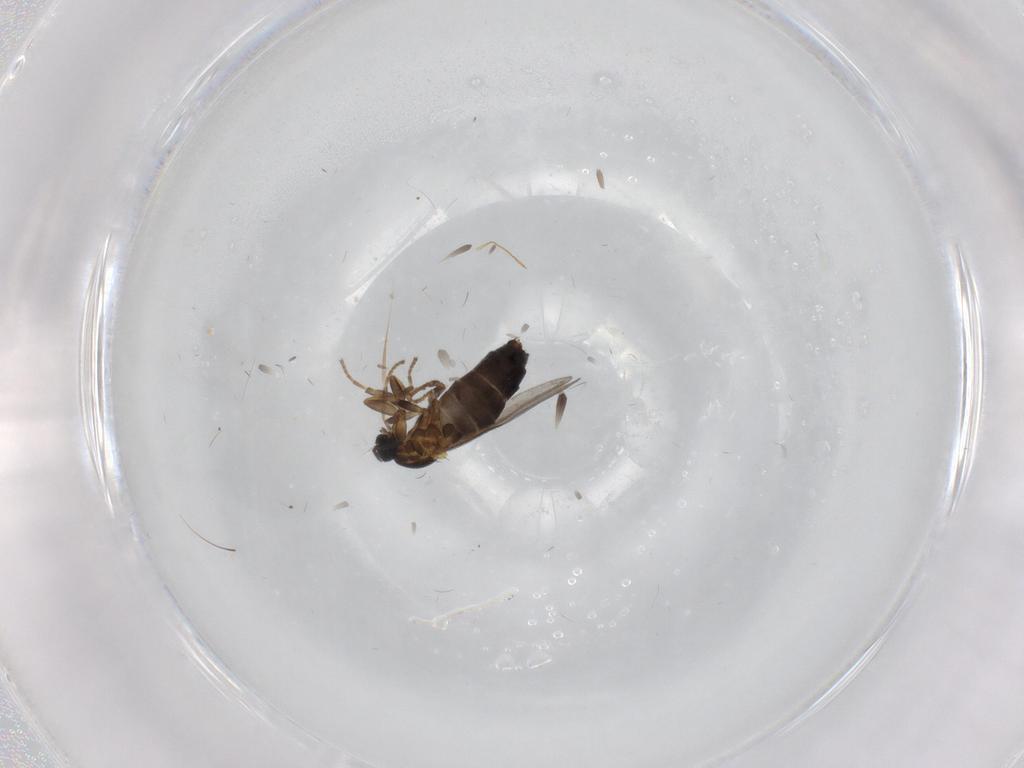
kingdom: Animalia
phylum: Arthropoda
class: Insecta
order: Diptera
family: Scatopsidae
